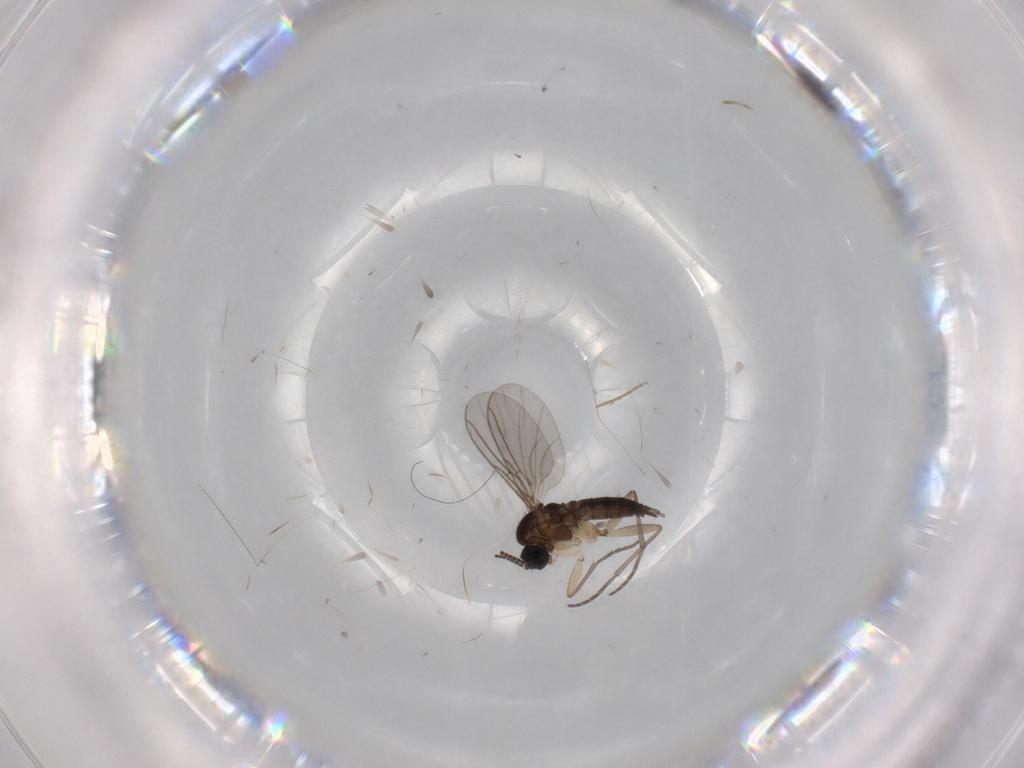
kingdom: Animalia
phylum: Arthropoda
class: Insecta
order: Diptera
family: Sciaridae
